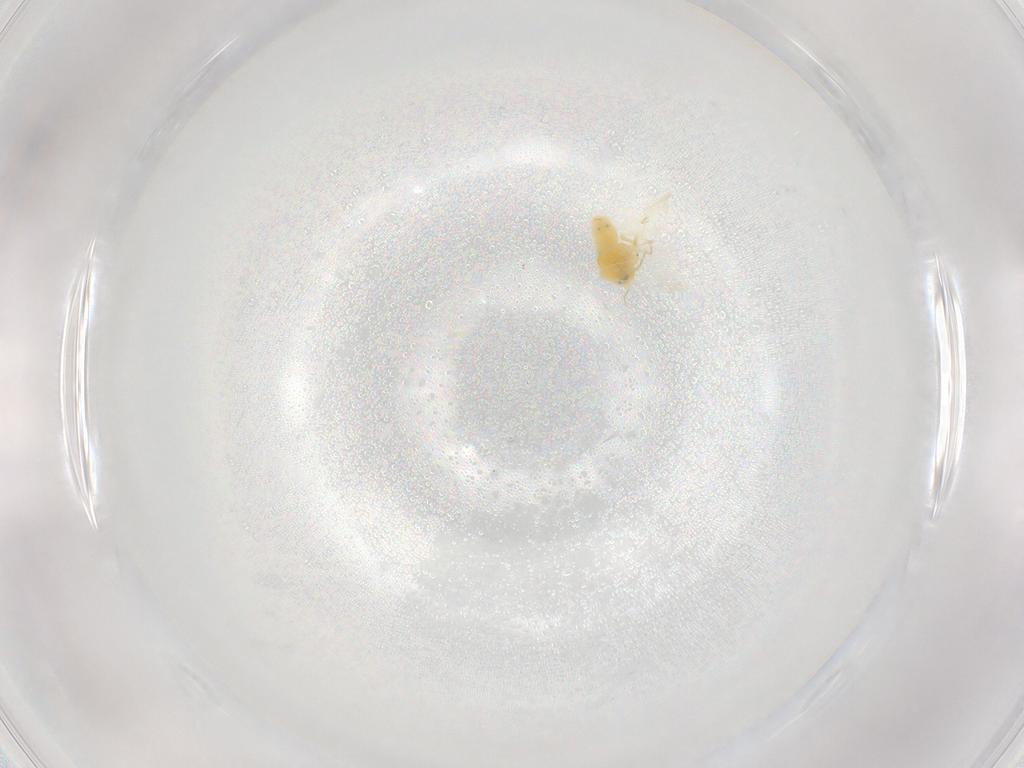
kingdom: Animalia
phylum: Arthropoda
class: Insecta
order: Hemiptera
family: Aleyrodidae
